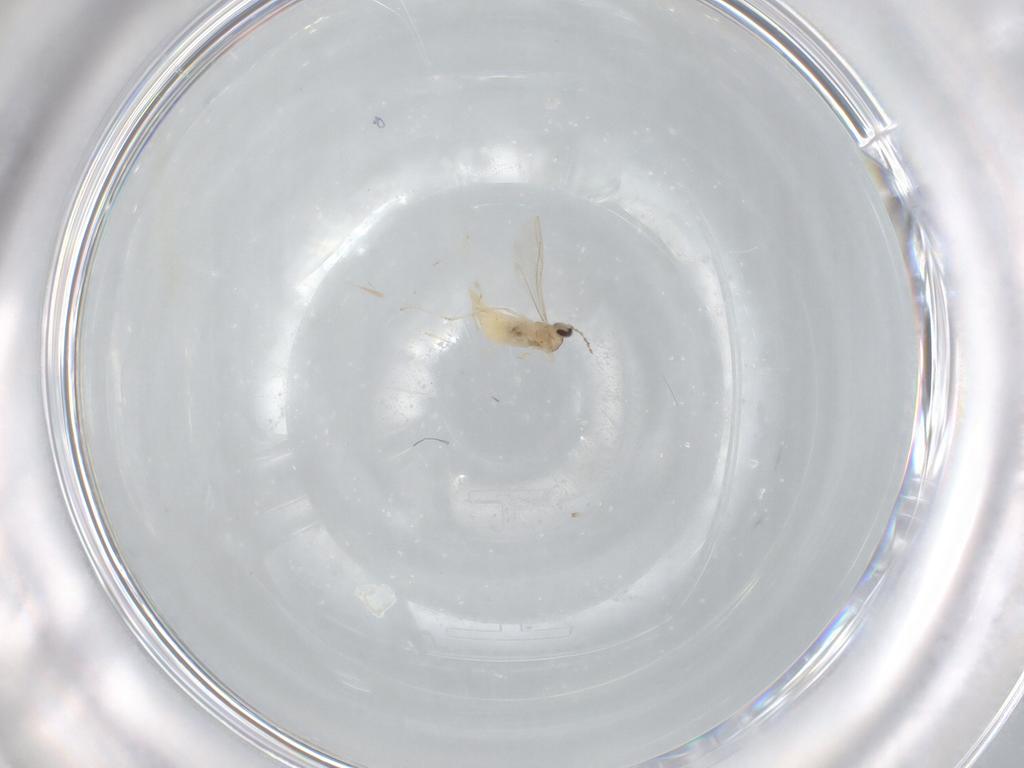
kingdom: Animalia
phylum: Arthropoda
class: Insecta
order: Diptera
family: Cecidomyiidae
